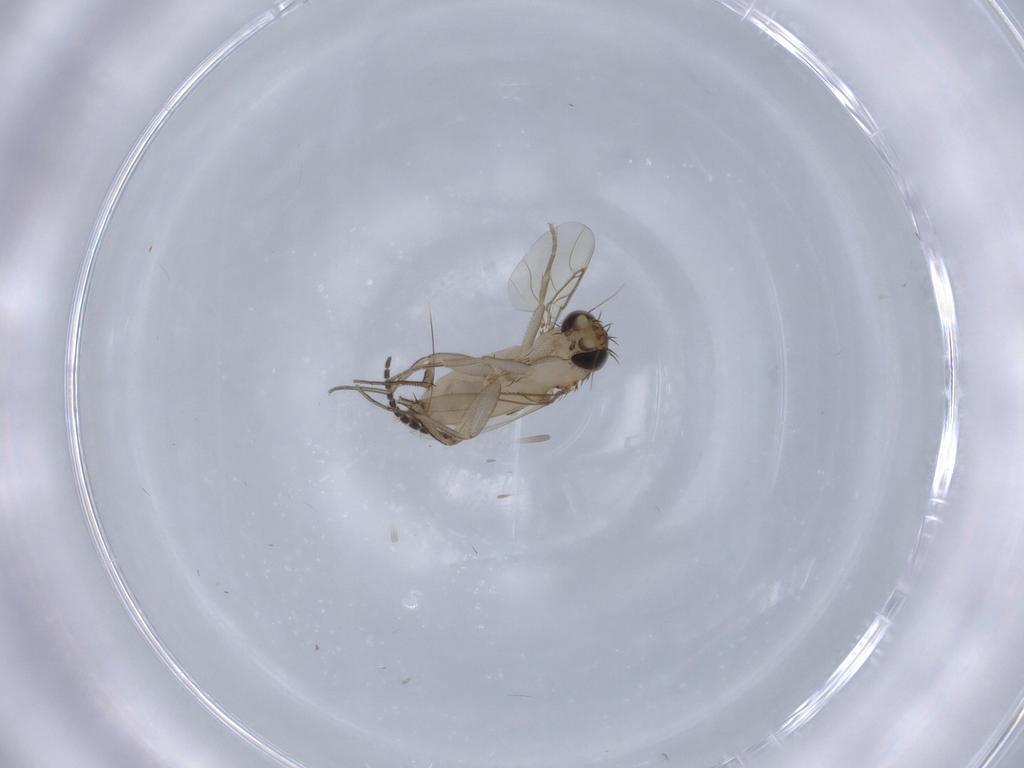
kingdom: Animalia
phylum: Arthropoda
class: Insecta
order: Diptera
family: Phoridae
